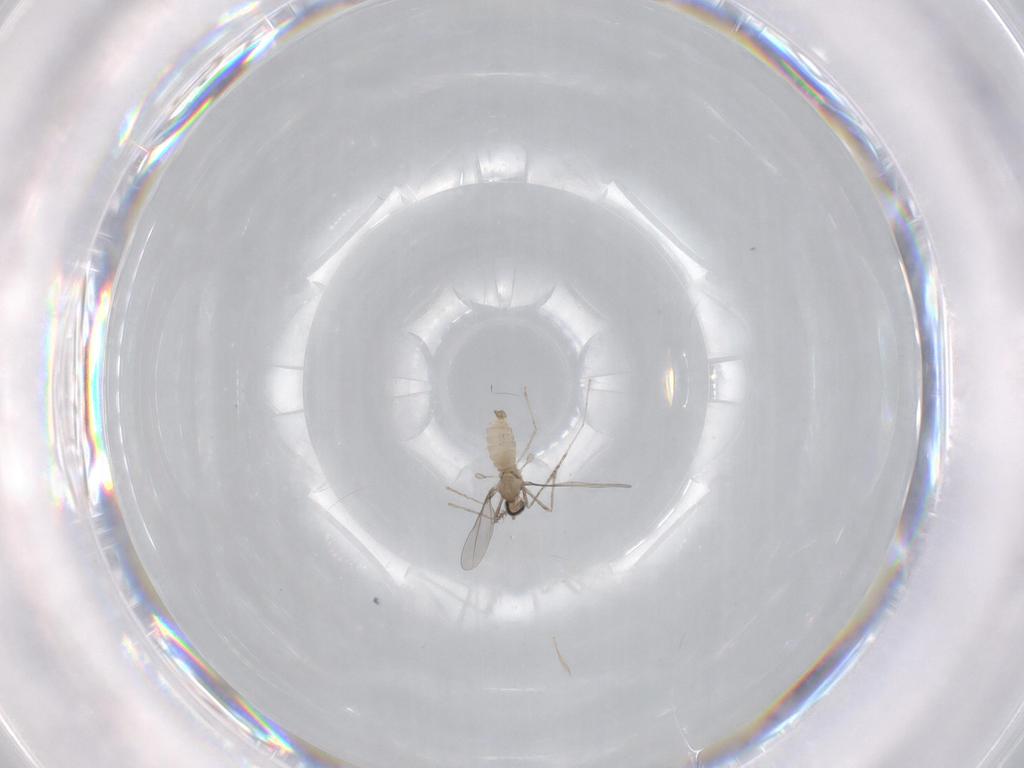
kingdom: Animalia
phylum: Arthropoda
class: Insecta
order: Diptera
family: Cecidomyiidae
